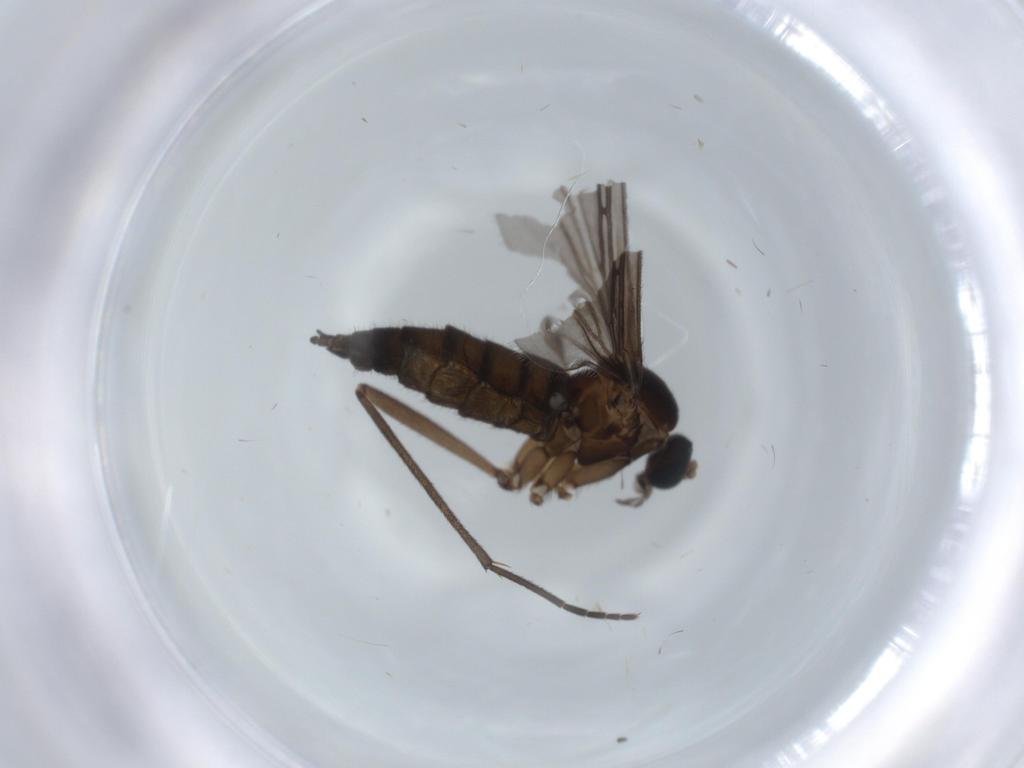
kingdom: Animalia
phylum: Arthropoda
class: Insecta
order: Diptera
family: Sciaridae
